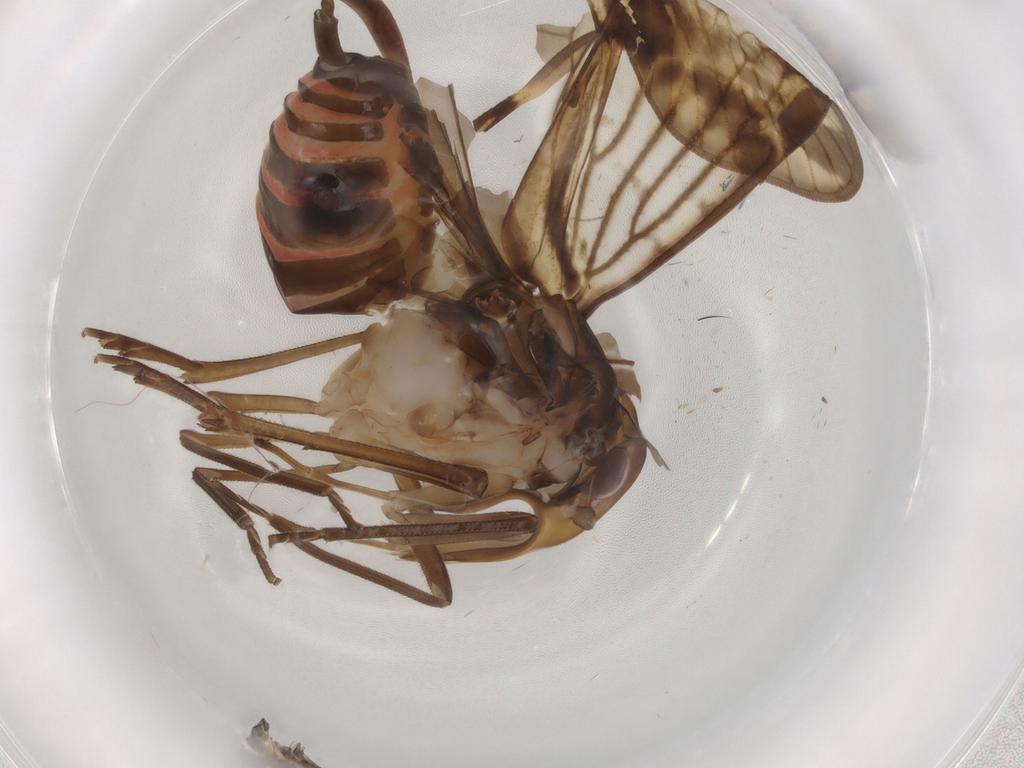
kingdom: Animalia
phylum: Arthropoda
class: Insecta
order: Hemiptera
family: Cixiidae
